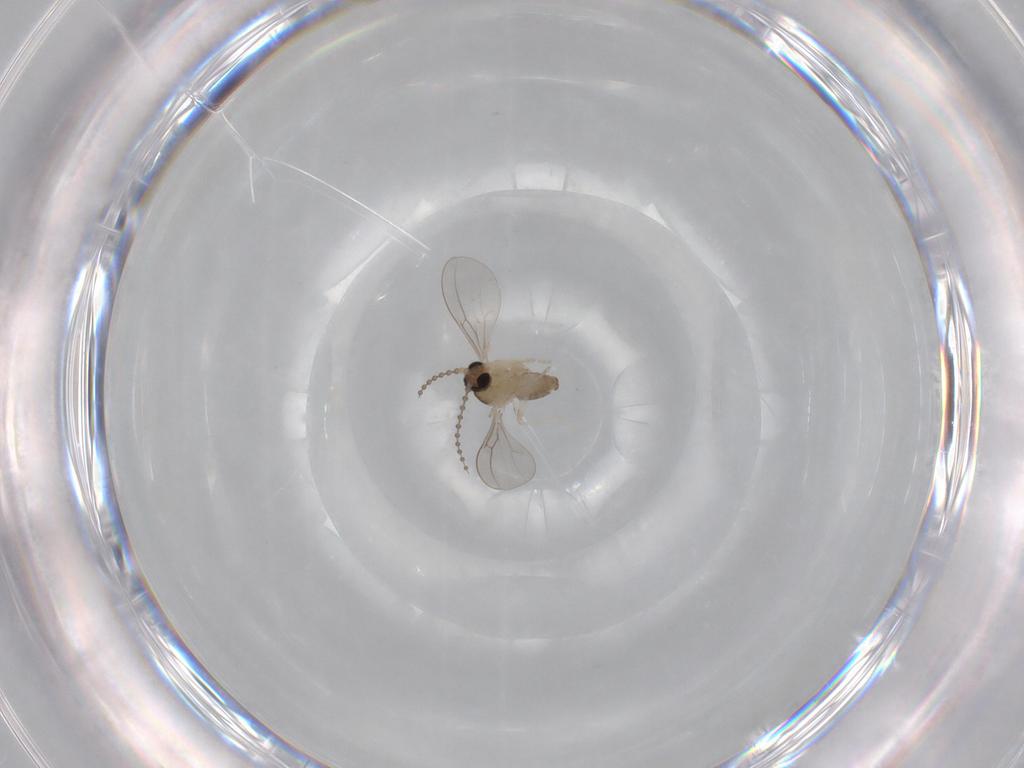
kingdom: Animalia
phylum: Arthropoda
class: Insecta
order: Diptera
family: Cecidomyiidae
